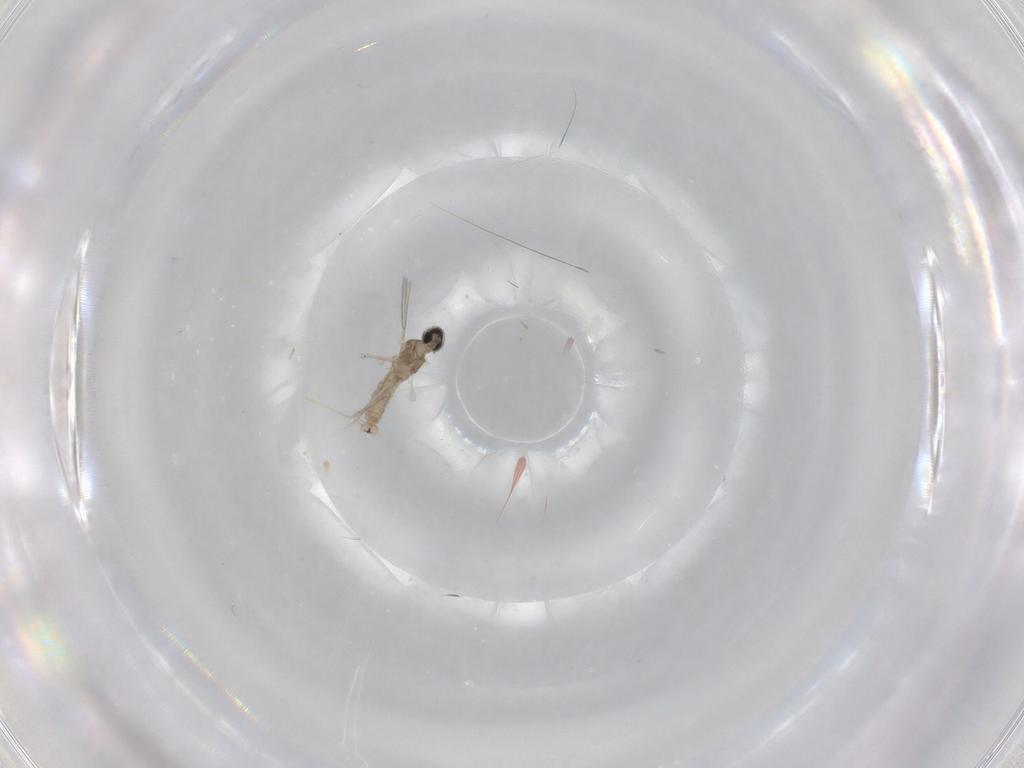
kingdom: Animalia
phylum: Arthropoda
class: Insecta
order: Diptera
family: Cecidomyiidae
